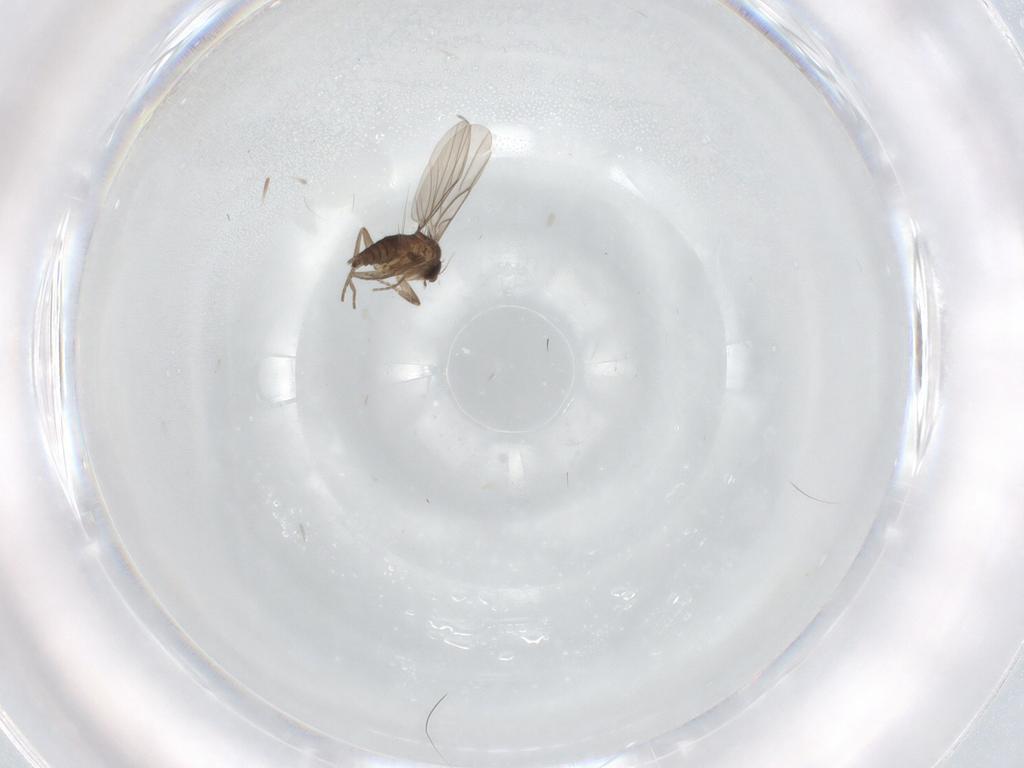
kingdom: Animalia
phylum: Arthropoda
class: Insecta
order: Diptera
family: Phoridae
